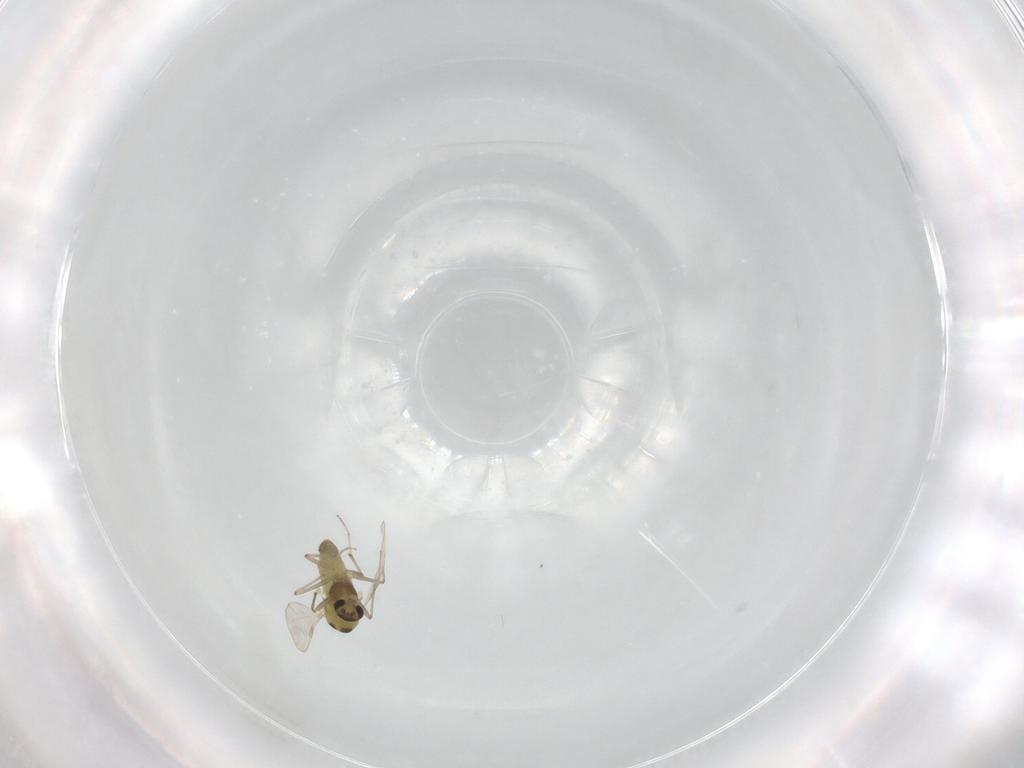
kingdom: Animalia
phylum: Arthropoda
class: Insecta
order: Diptera
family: Chironomidae
